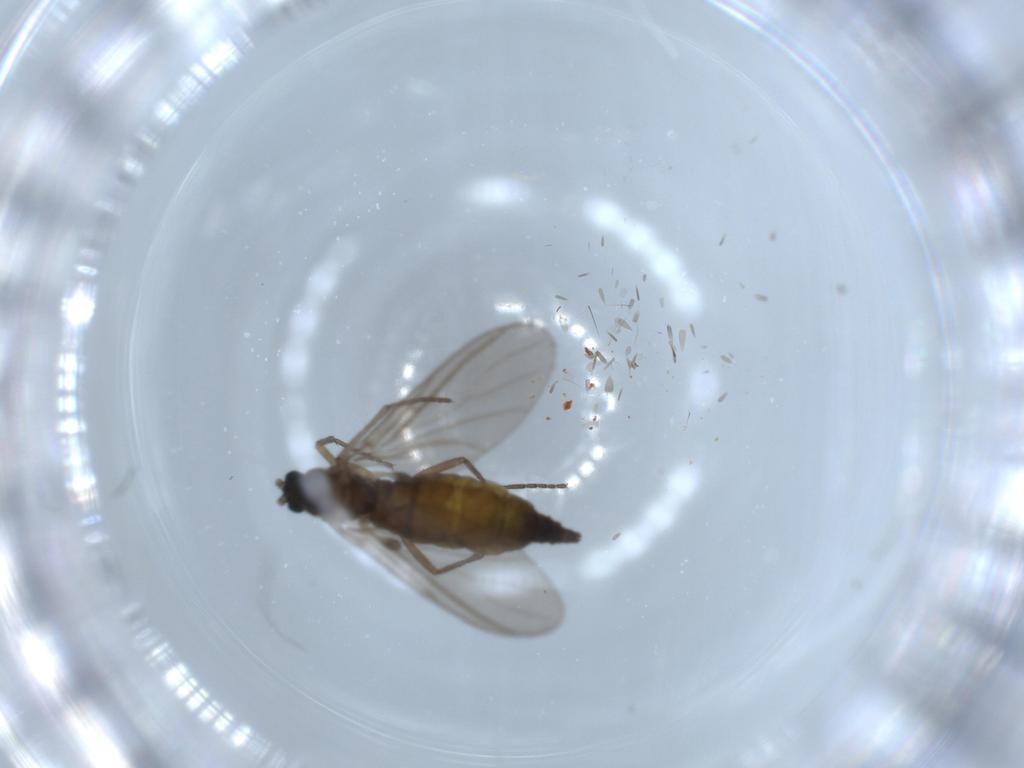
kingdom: Animalia
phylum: Arthropoda
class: Insecta
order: Diptera
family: Sciaridae
